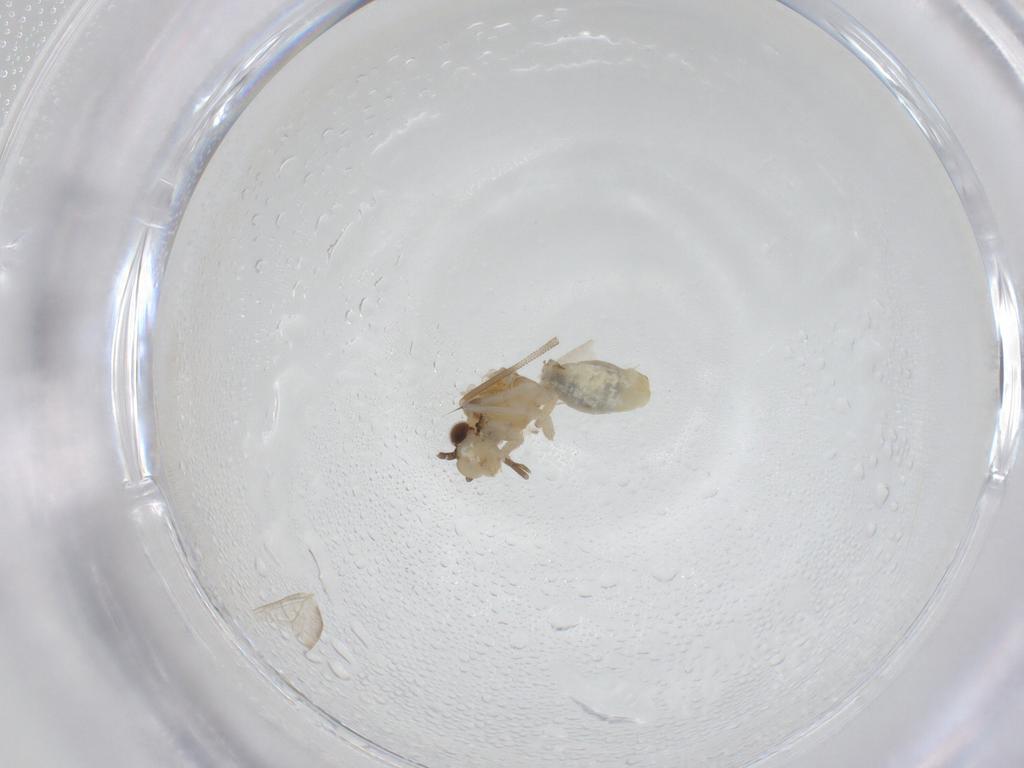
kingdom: Animalia
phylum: Arthropoda
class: Insecta
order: Psocodea
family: Caeciliusidae
